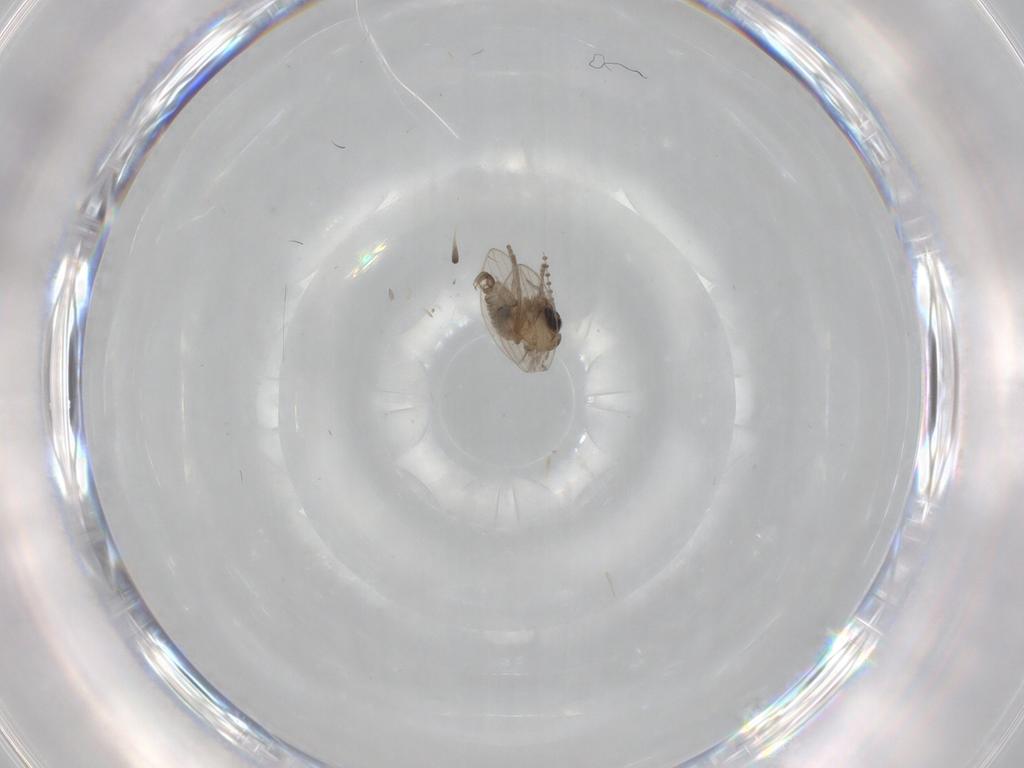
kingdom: Animalia
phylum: Arthropoda
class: Insecta
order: Diptera
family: Psychodidae
